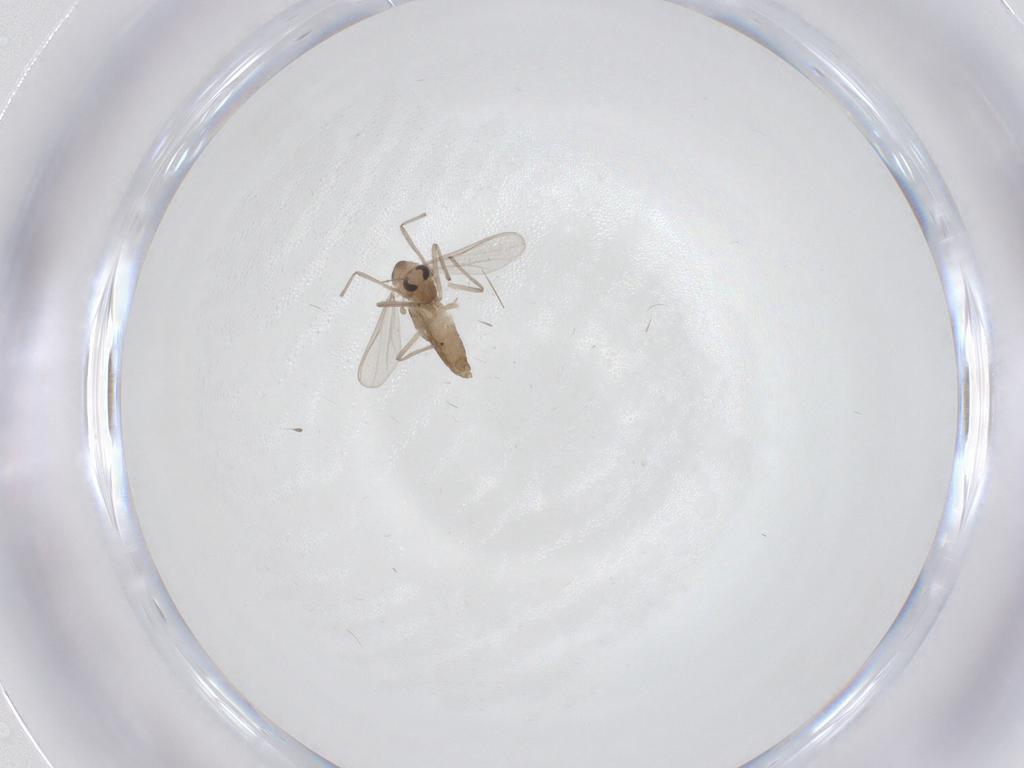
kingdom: Animalia
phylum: Arthropoda
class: Insecta
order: Diptera
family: Chironomidae
